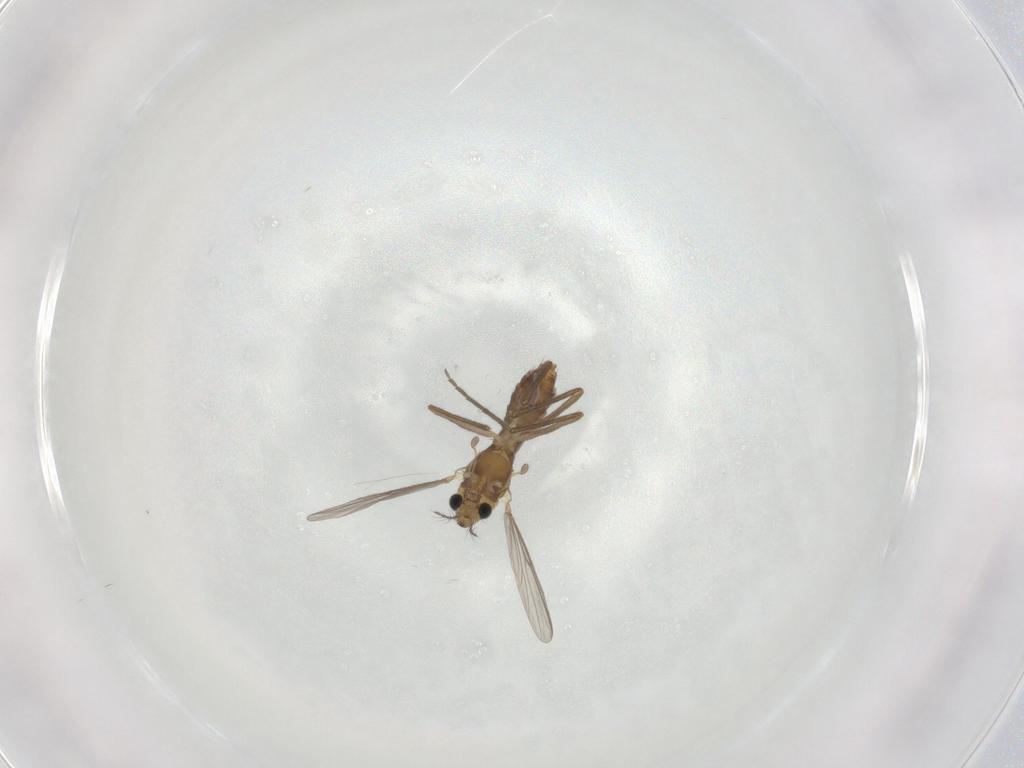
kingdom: Animalia
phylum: Arthropoda
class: Insecta
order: Diptera
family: Chironomidae
